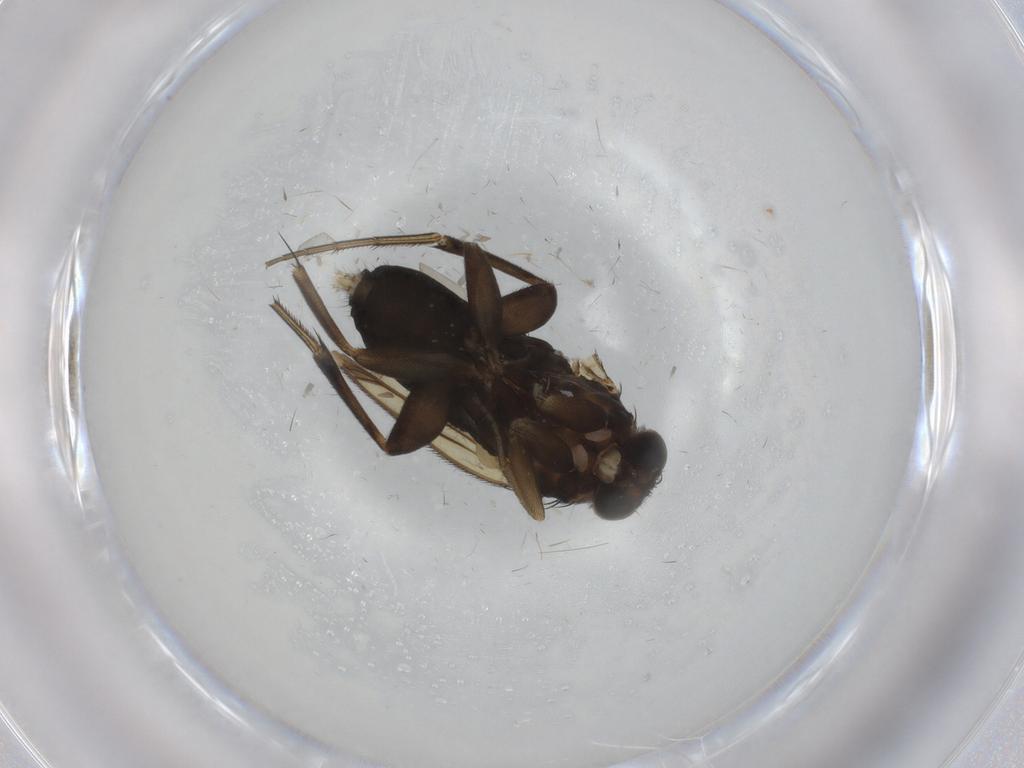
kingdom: Animalia
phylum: Arthropoda
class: Insecta
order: Diptera
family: Phoridae
